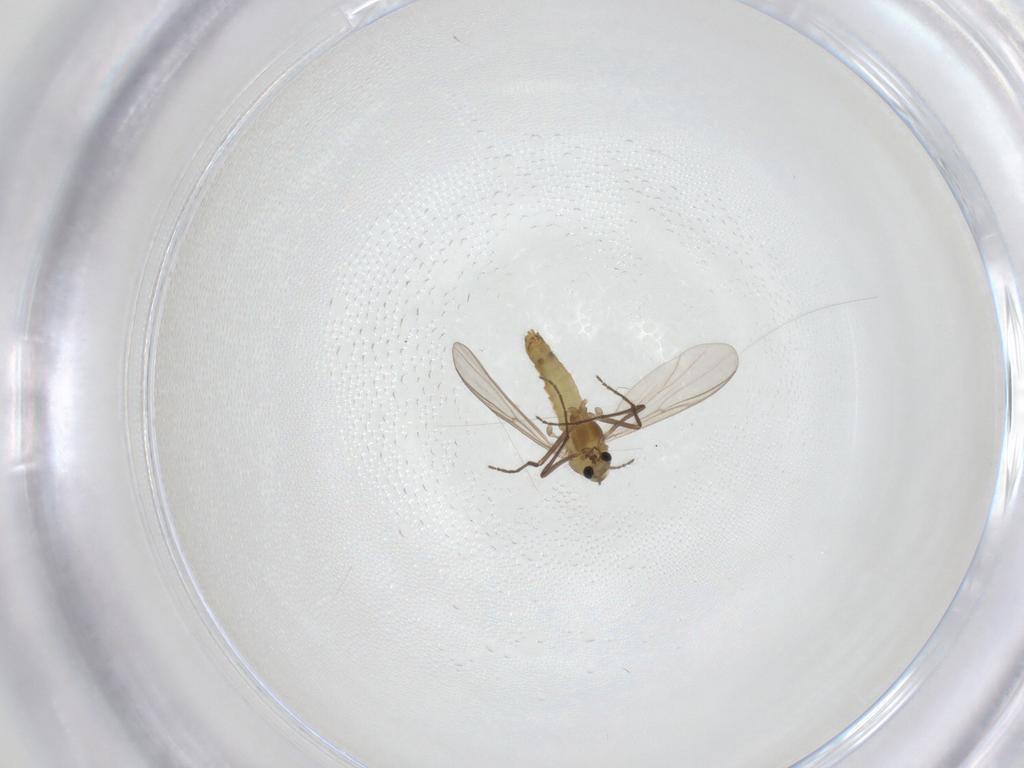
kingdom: Animalia
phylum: Arthropoda
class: Insecta
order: Diptera
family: Chironomidae
